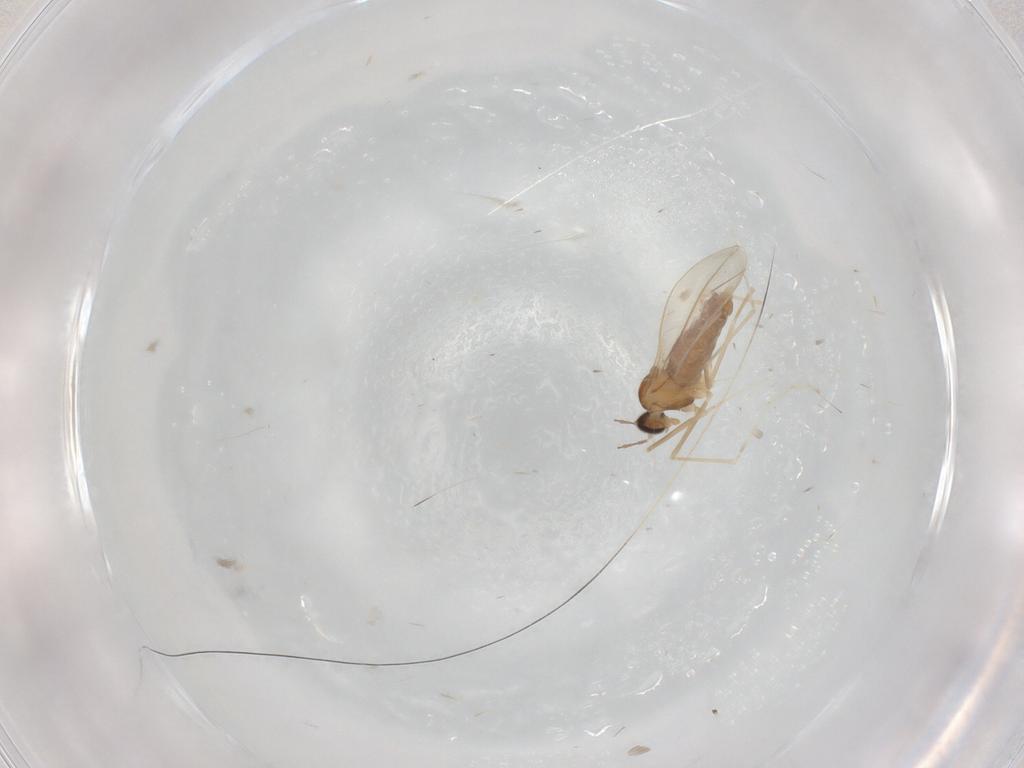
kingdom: Animalia
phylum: Arthropoda
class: Insecta
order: Diptera
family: Cecidomyiidae
